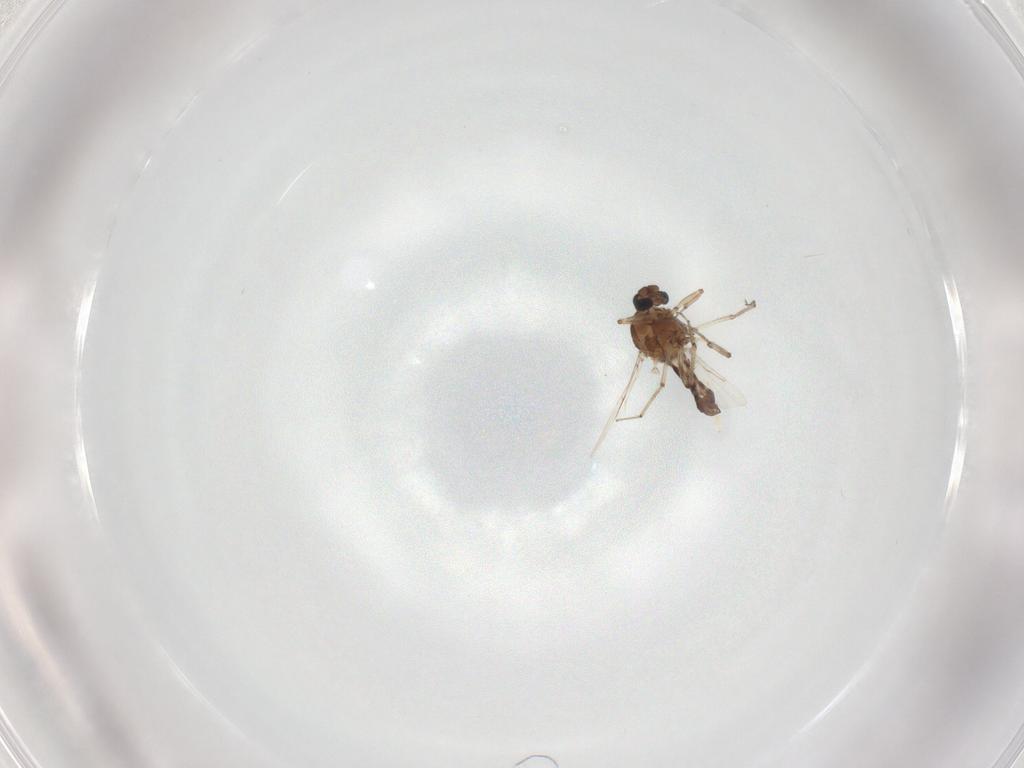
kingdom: Animalia
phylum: Arthropoda
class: Insecta
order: Diptera
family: Ceratopogonidae
